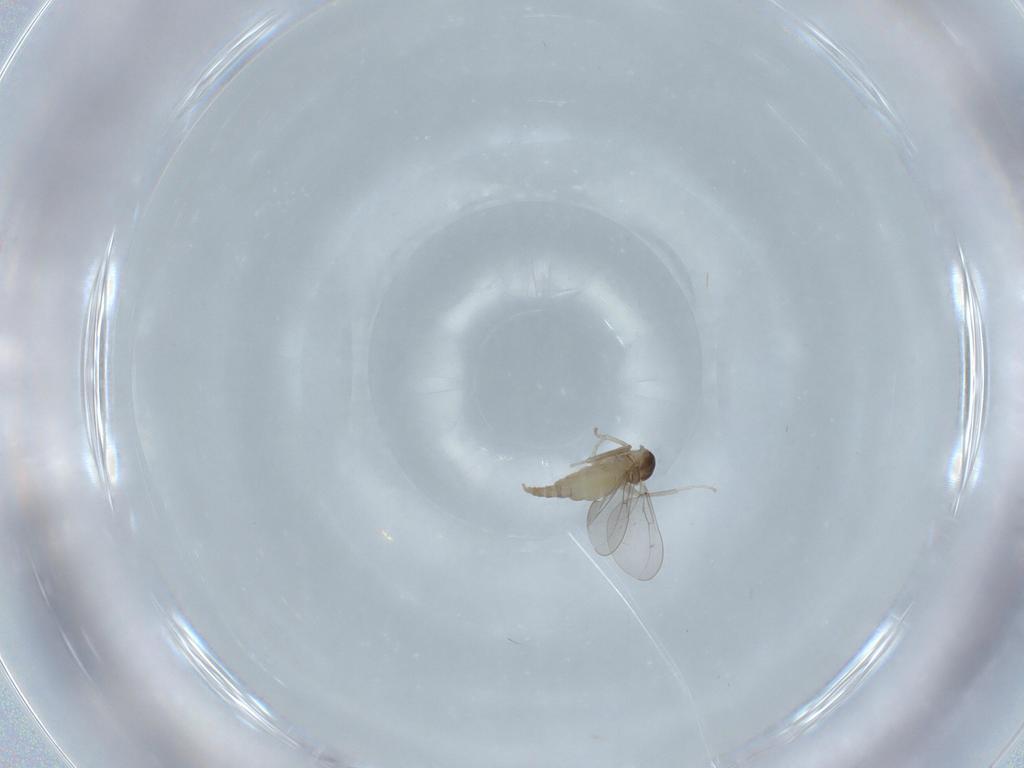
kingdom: Animalia
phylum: Arthropoda
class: Insecta
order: Diptera
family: Cecidomyiidae
